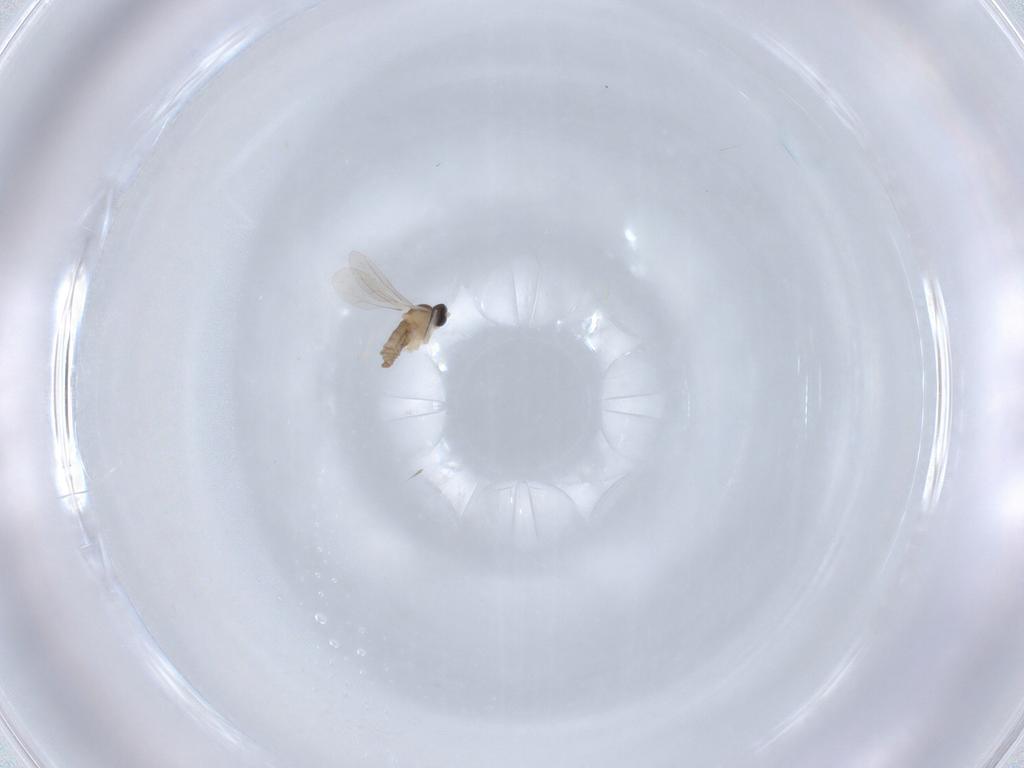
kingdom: Animalia
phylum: Arthropoda
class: Insecta
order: Diptera
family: Cecidomyiidae
